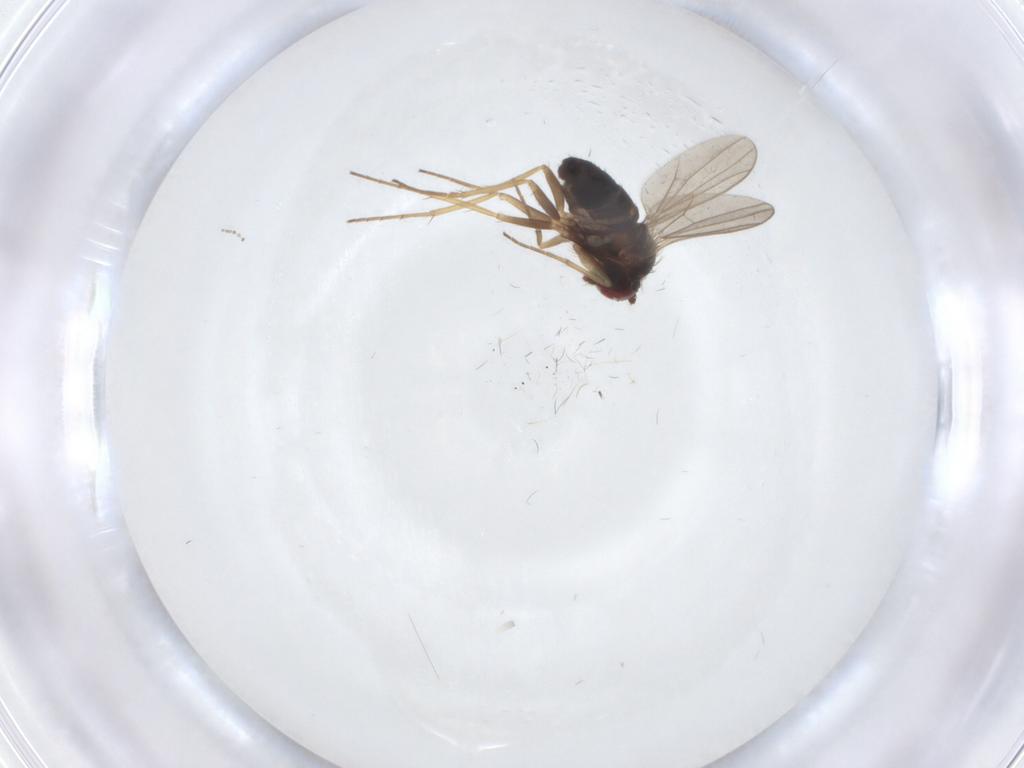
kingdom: Animalia
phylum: Arthropoda
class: Insecta
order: Diptera
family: Dolichopodidae
